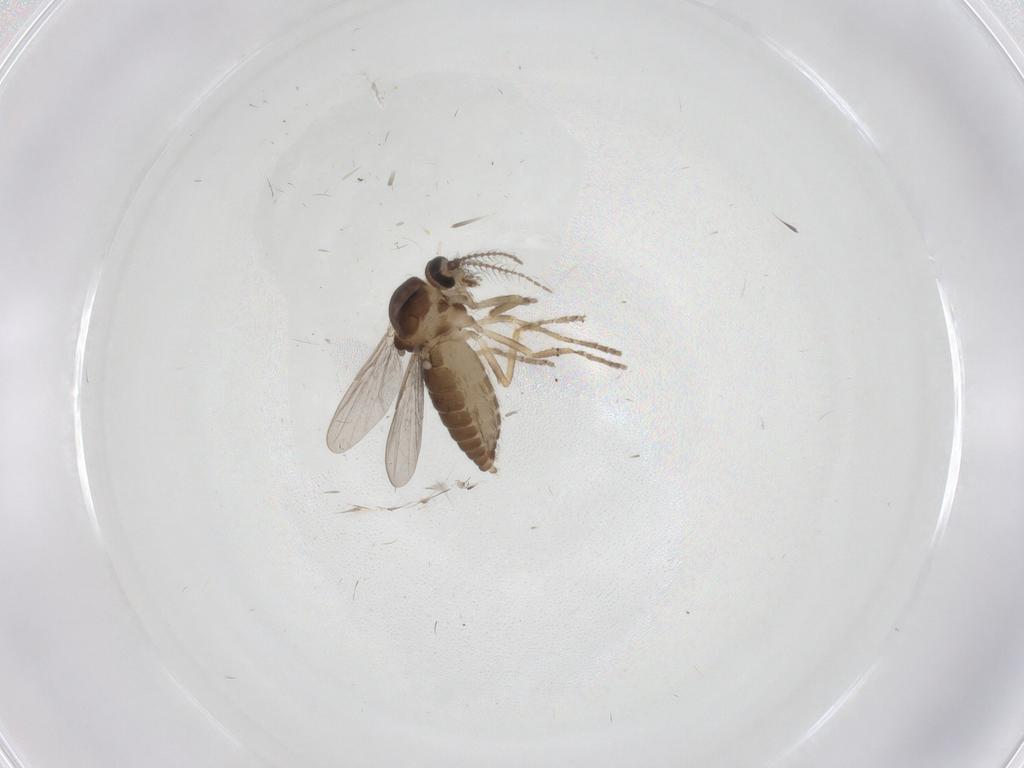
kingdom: Animalia
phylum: Arthropoda
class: Insecta
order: Diptera
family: Ceratopogonidae
